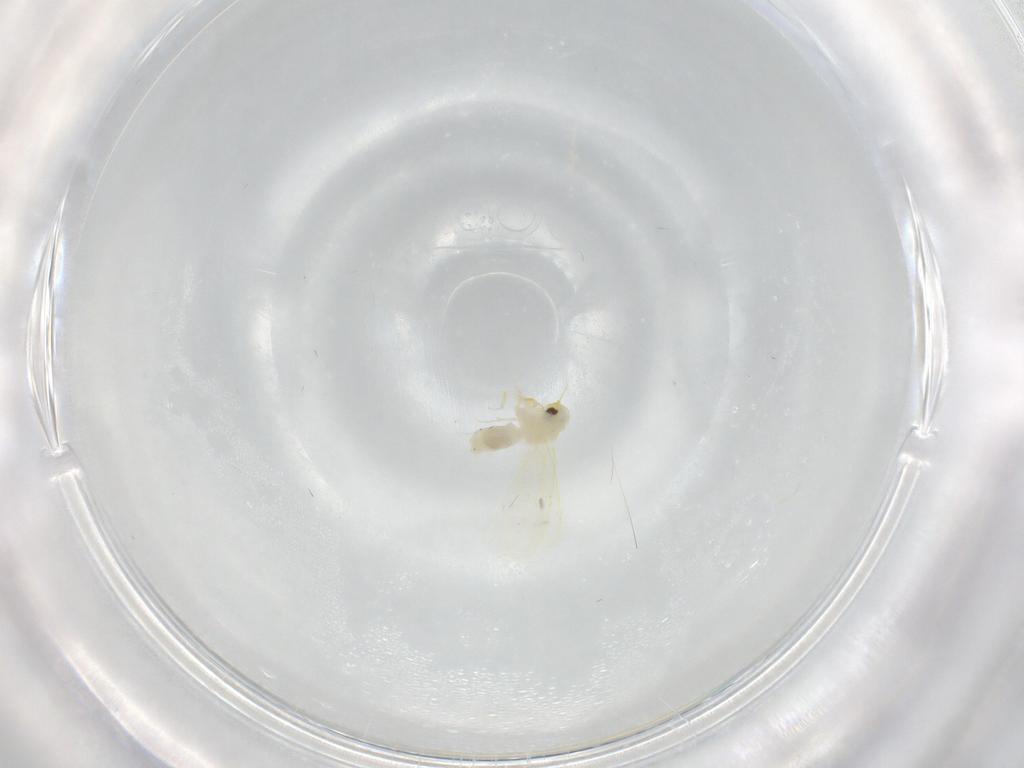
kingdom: Animalia
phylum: Arthropoda
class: Insecta
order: Hemiptera
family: Aleyrodidae
